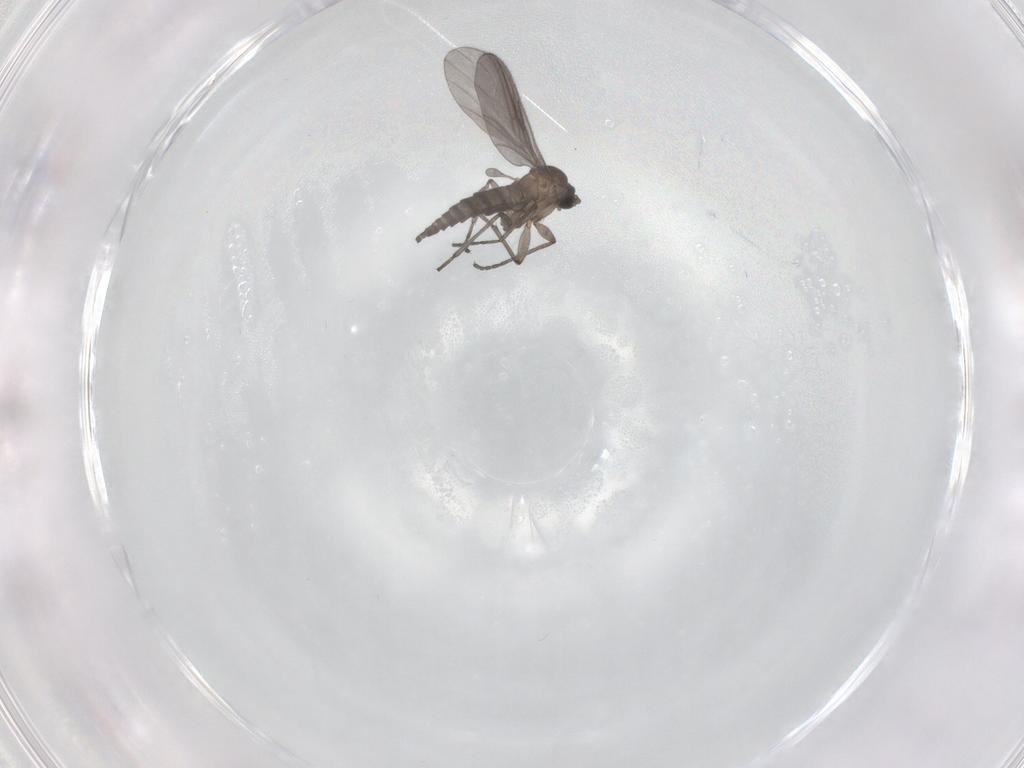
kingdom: Animalia
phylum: Arthropoda
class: Insecta
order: Diptera
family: Sciaridae
